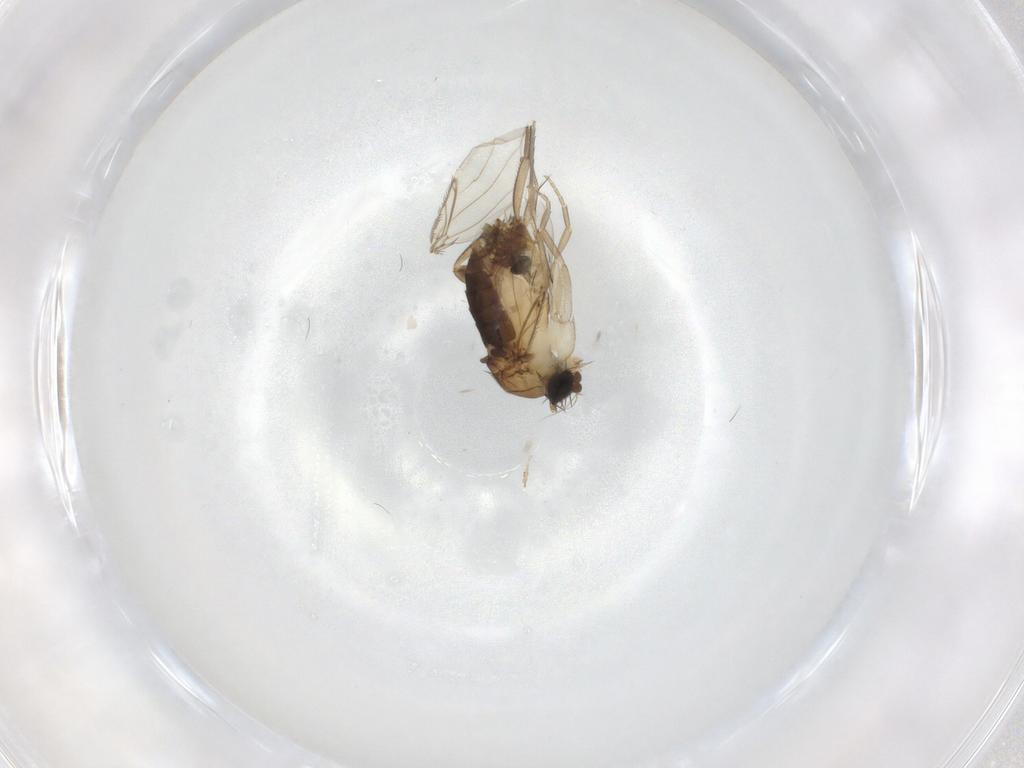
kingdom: Animalia
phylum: Arthropoda
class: Insecta
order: Diptera
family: Phoridae
